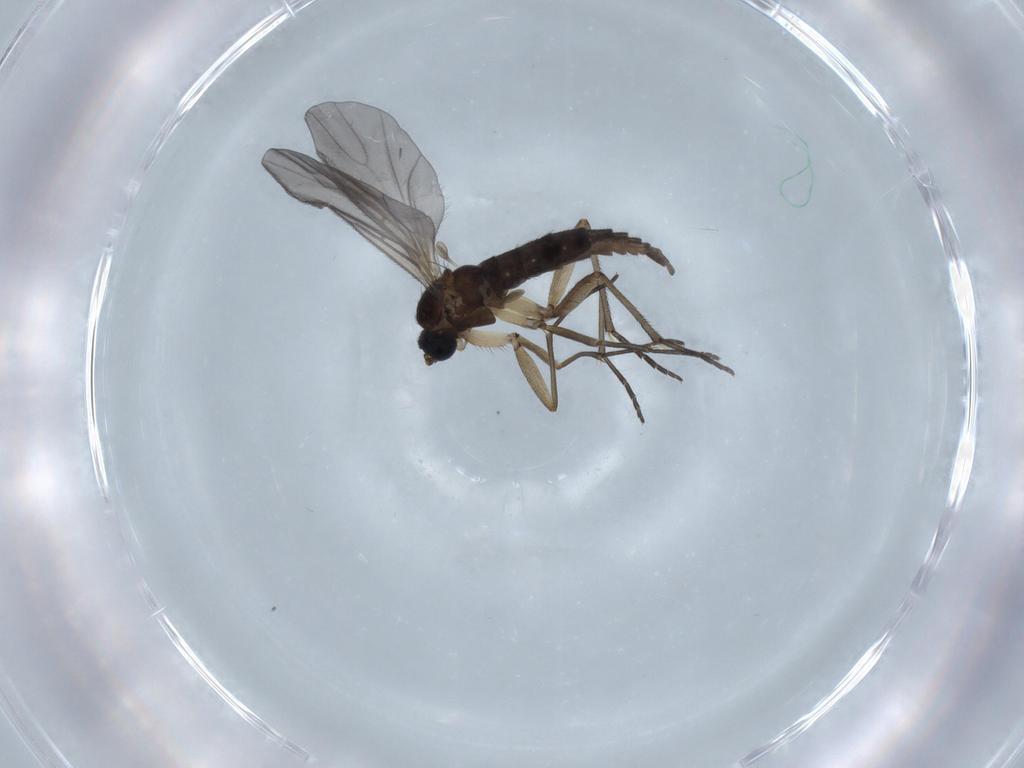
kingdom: Animalia
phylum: Arthropoda
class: Insecta
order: Diptera
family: Sciaridae
